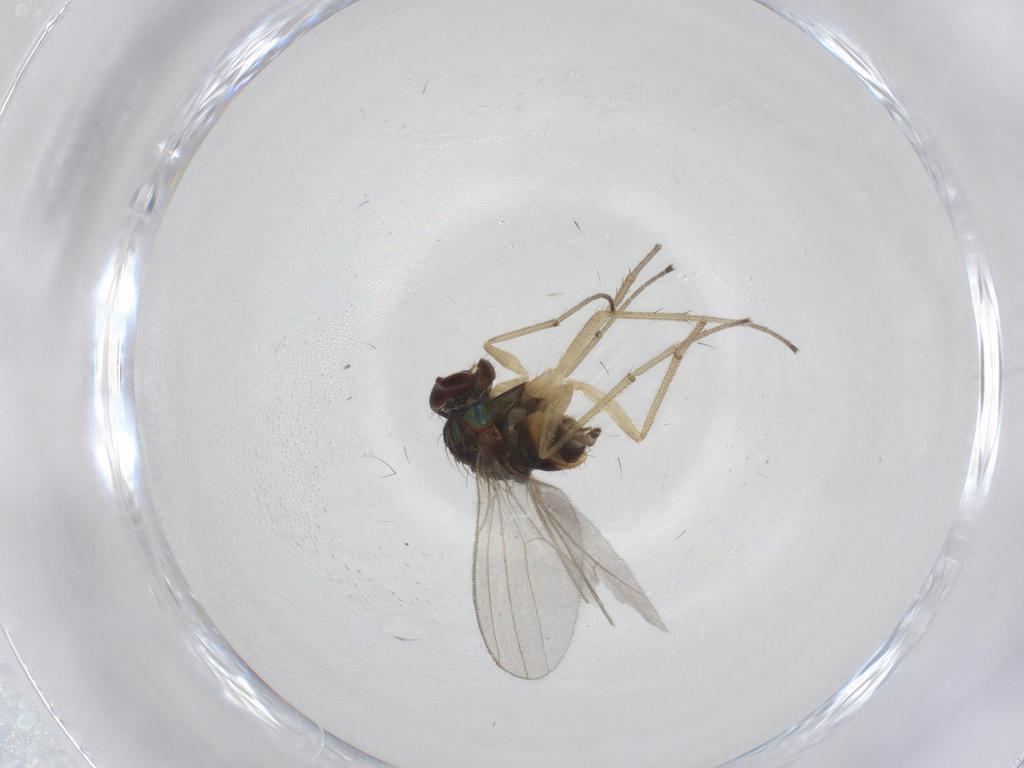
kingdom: Animalia
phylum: Arthropoda
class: Insecta
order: Diptera
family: Dolichopodidae
